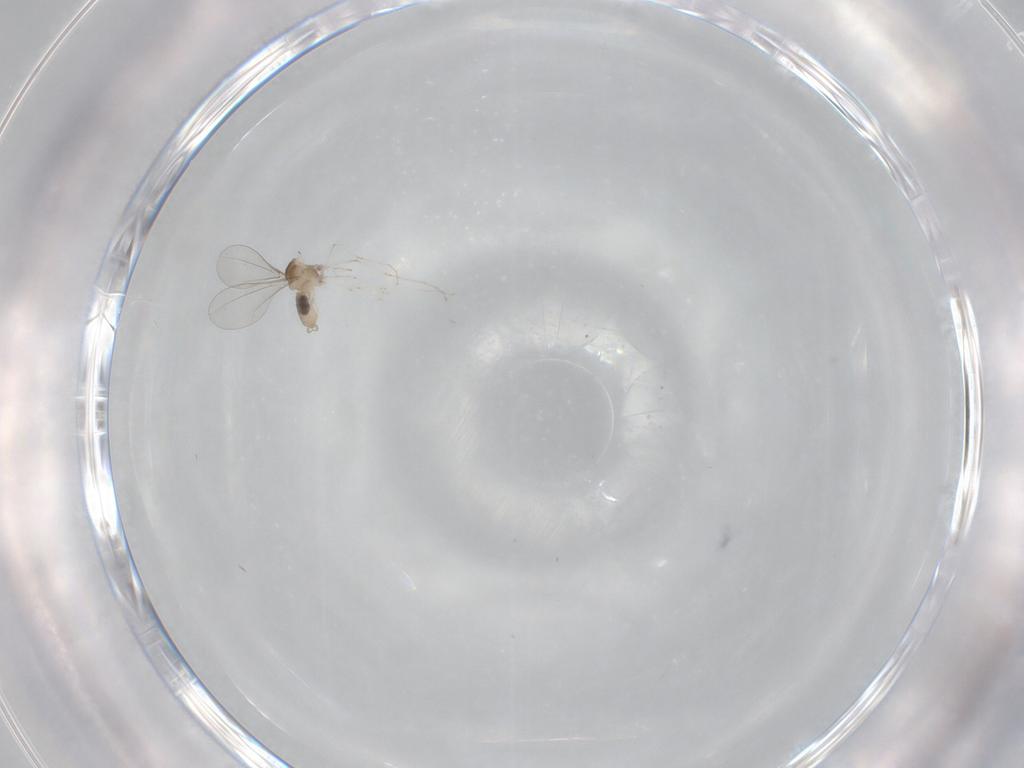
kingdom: Animalia
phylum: Arthropoda
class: Insecta
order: Diptera
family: Cecidomyiidae
